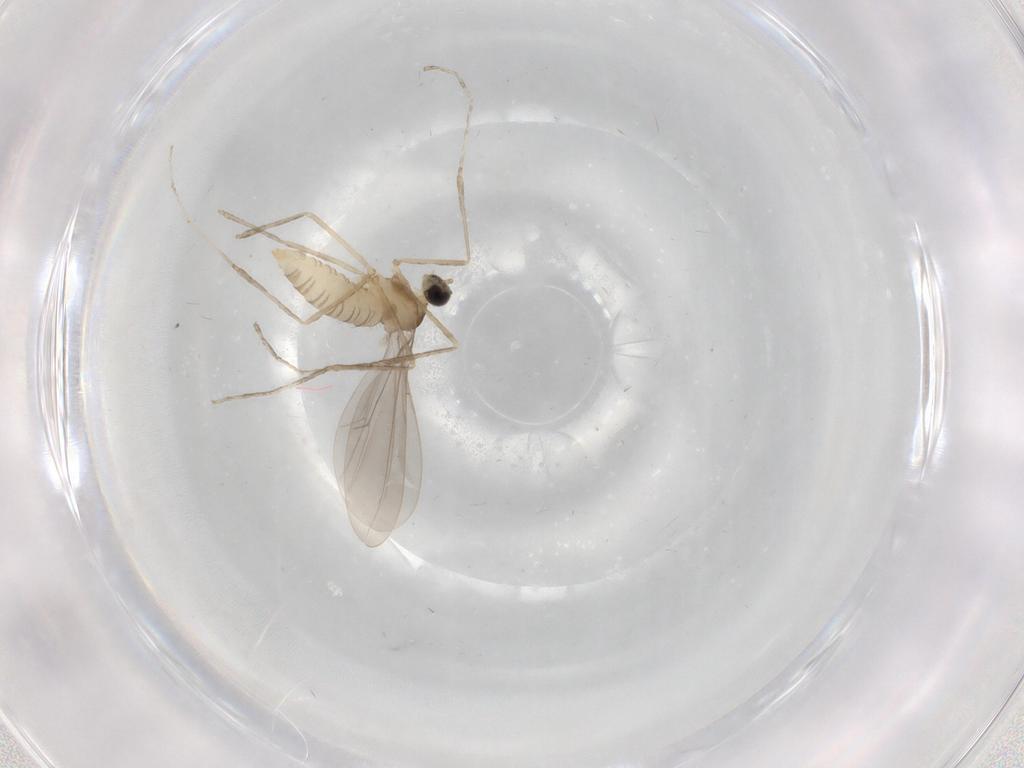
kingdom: Animalia
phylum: Arthropoda
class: Insecta
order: Diptera
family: Cecidomyiidae
